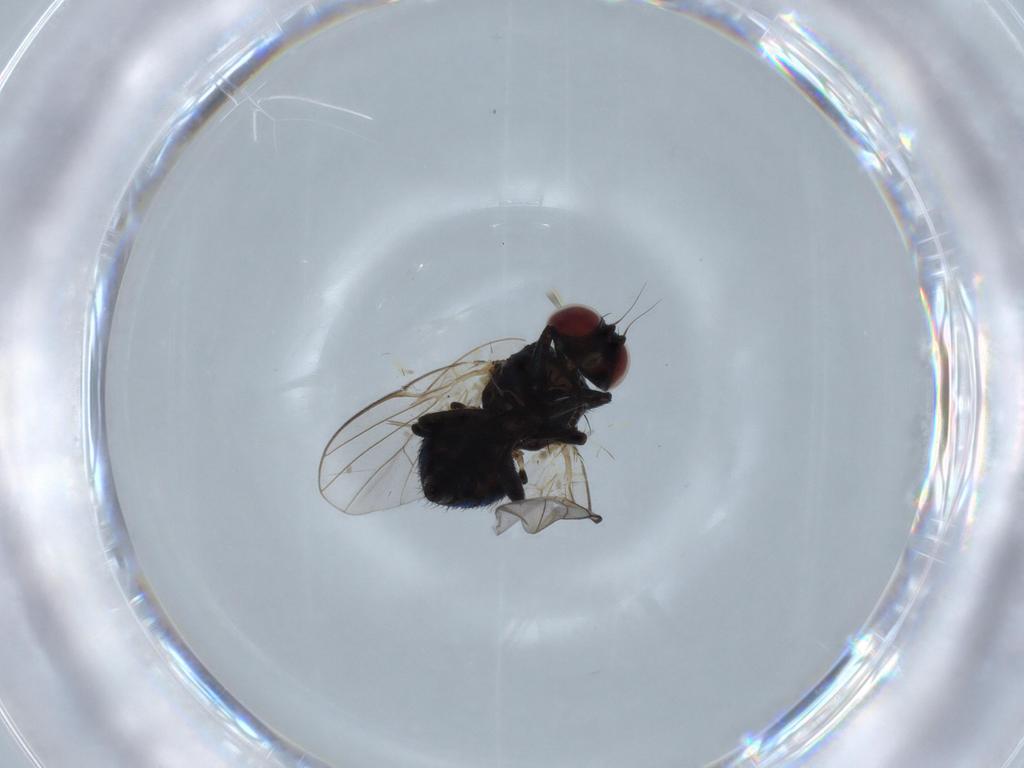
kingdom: Animalia
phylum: Arthropoda
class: Insecta
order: Diptera
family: Agromyzidae
